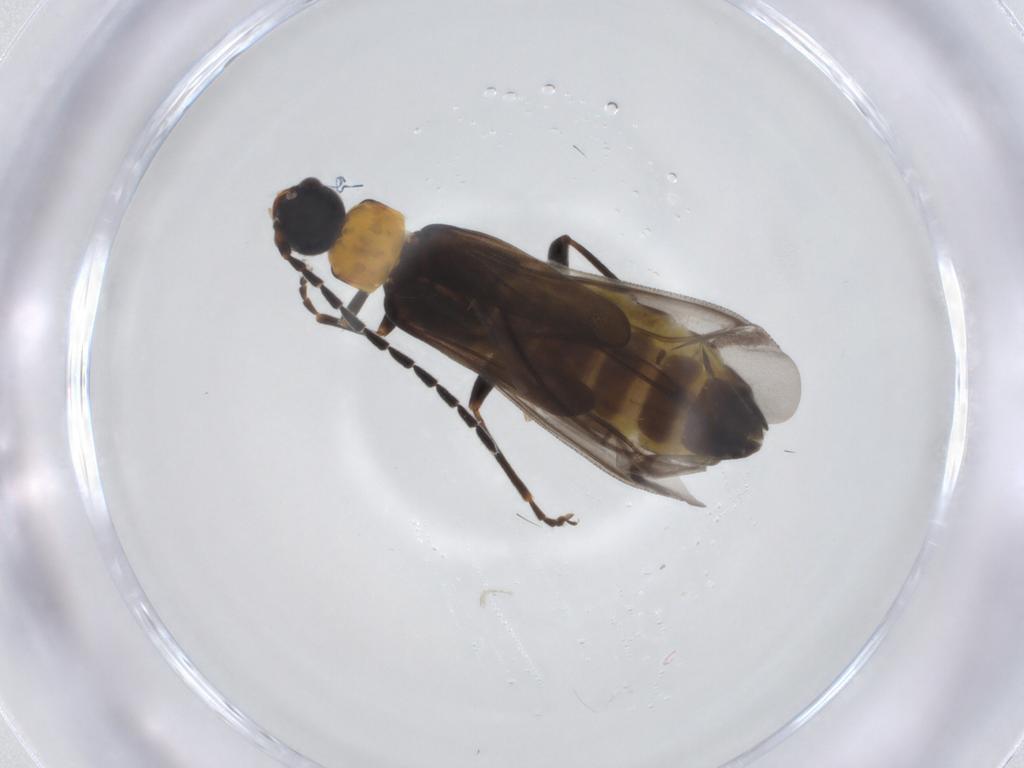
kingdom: Animalia
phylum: Arthropoda
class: Insecta
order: Coleoptera
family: Cantharidae
